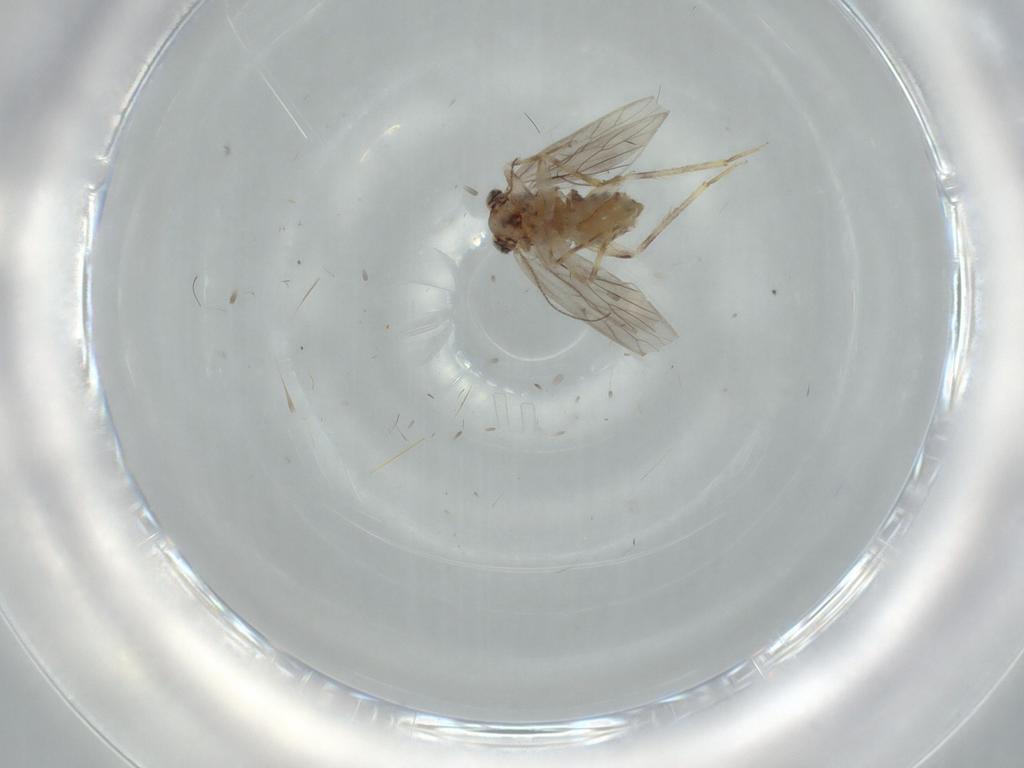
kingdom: Animalia
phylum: Arthropoda
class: Insecta
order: Psocodea
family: Lepidopsocidae
